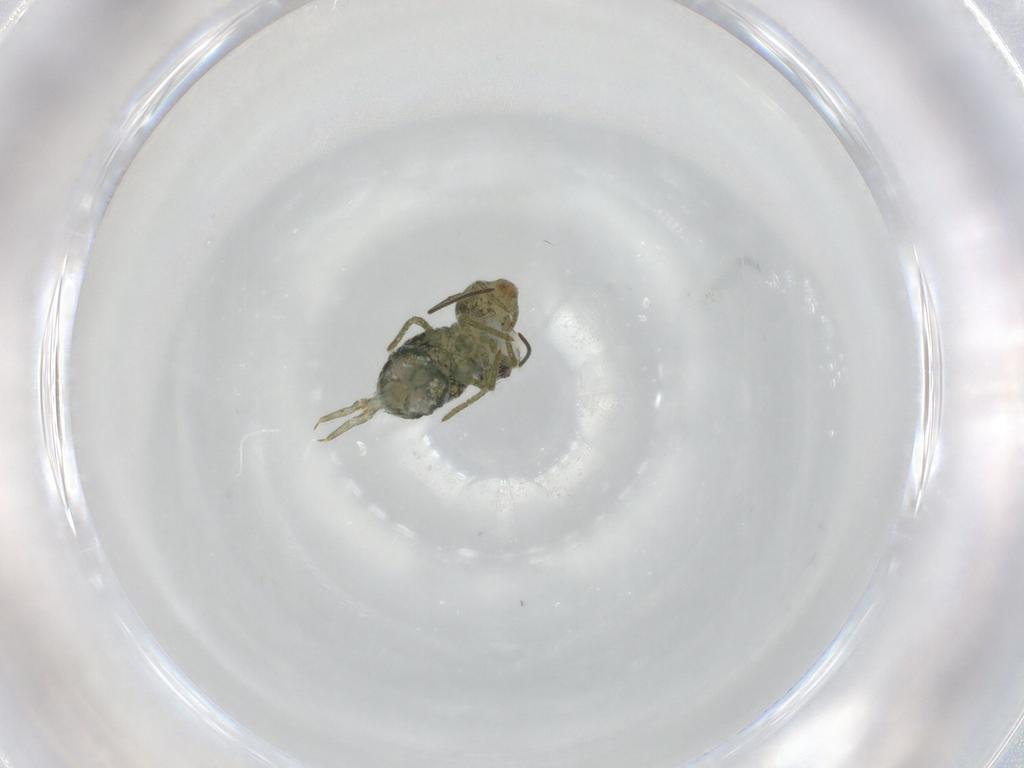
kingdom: Animalia
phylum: Arthropoda
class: Collembola
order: Symphypleona
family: Sminthuridae
